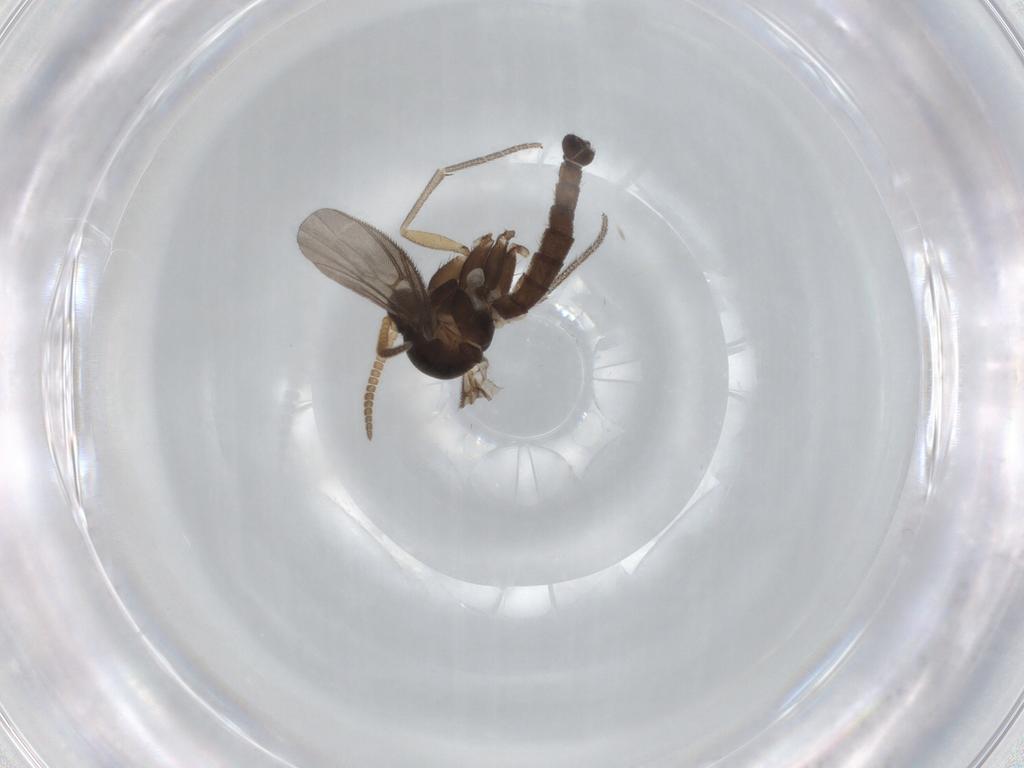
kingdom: Animalia
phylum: Arthropoda
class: Insecta
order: Diptera
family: Mycetophilidae
